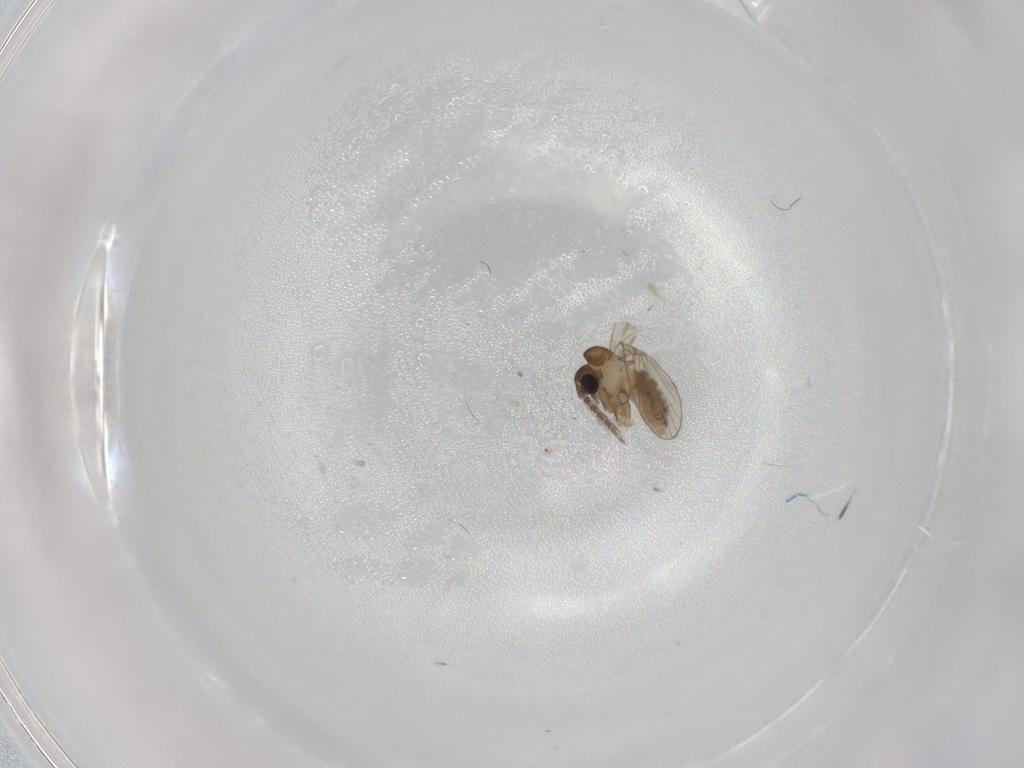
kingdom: Animalia
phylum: Arthropoda
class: Insecta
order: Diptera
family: Psychodidae
